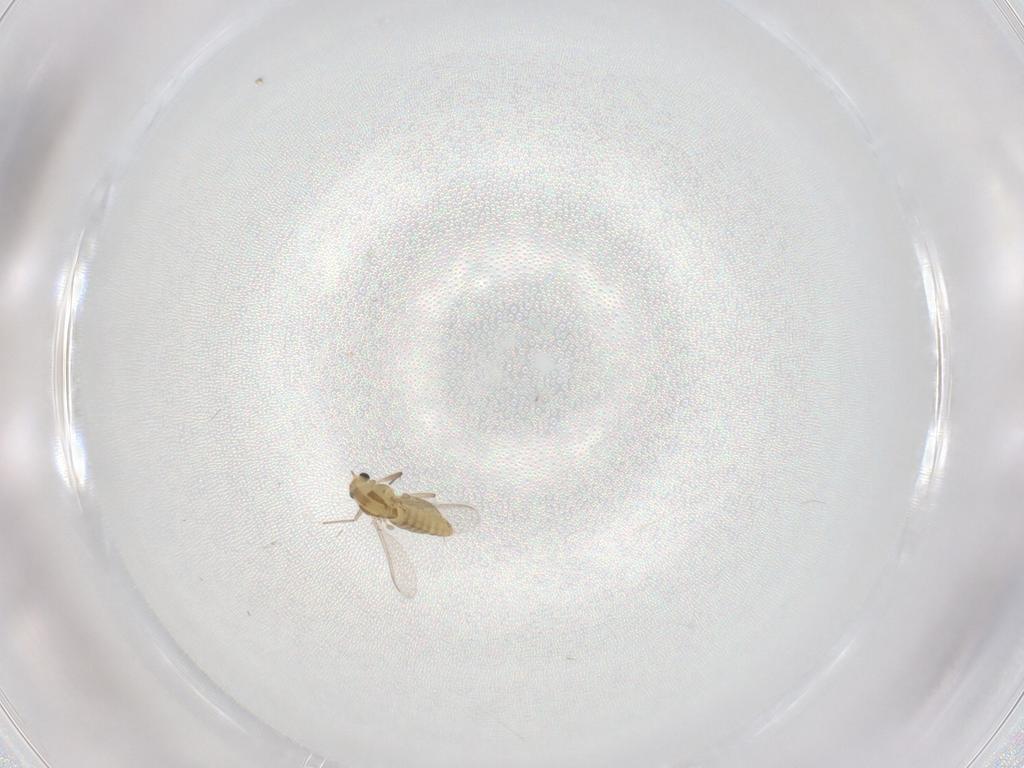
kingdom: Animalia
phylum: Arthropoda
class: Insecta
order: Diptera
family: Chironomidae
